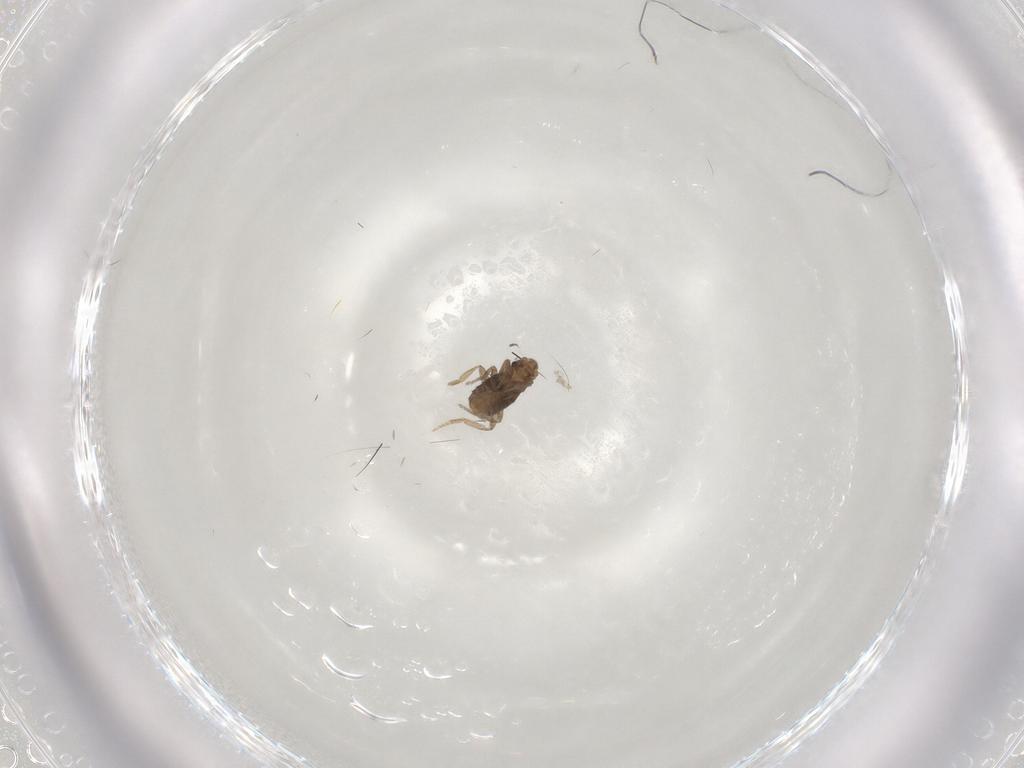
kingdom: Animalia
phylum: Arthropoda
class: Insecta
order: Diptera
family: Phoridae
